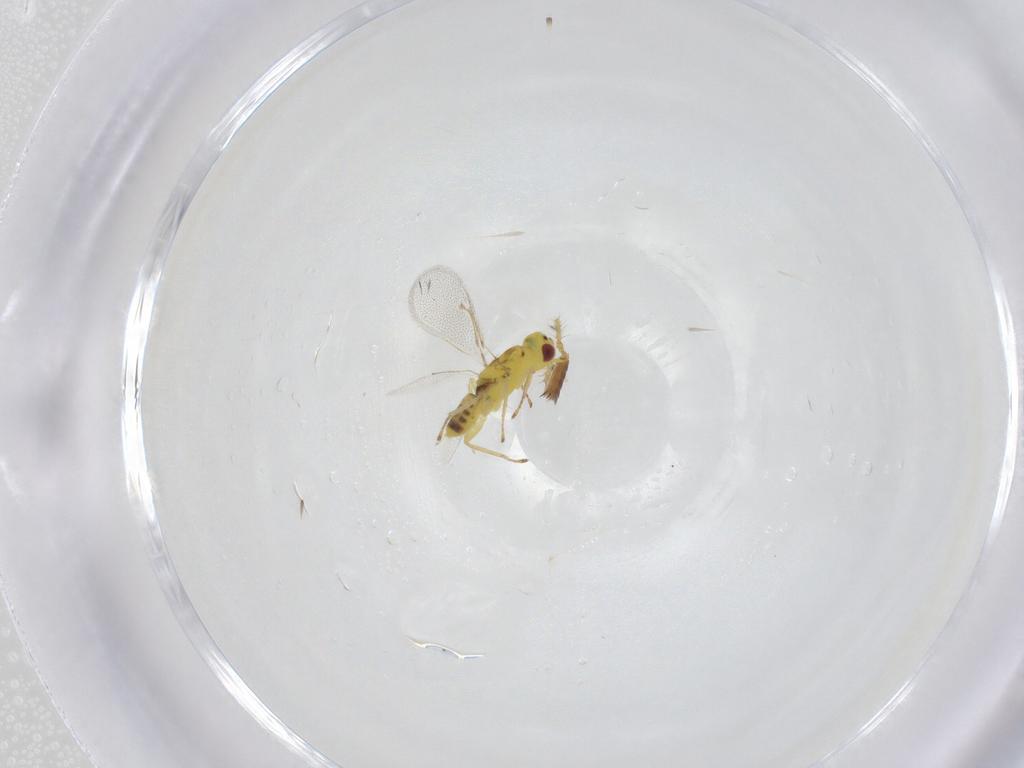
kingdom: Animalia
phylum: Arthropoda
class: Insecta
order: Hymenoptera
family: Eulophidae
